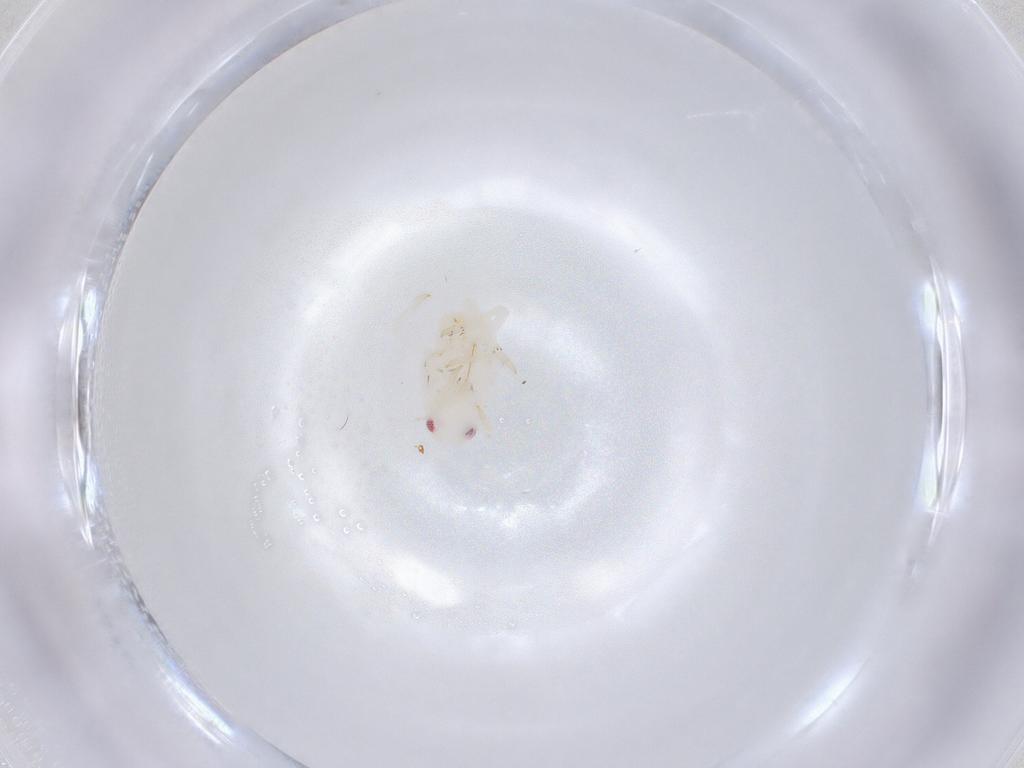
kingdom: Animalia
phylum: Arthropoda
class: Insecta
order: Hemiptera
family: Flatidae
